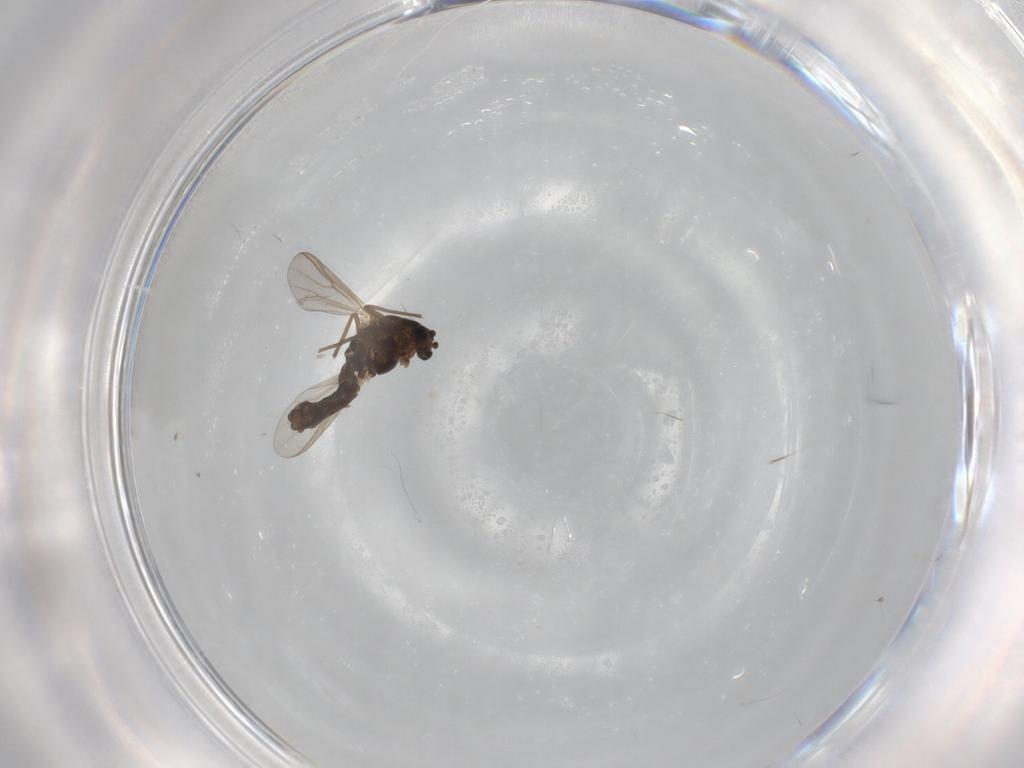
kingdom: Animalia
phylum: Arthropoda
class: Insecta
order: Diptera
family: Chironomidae
